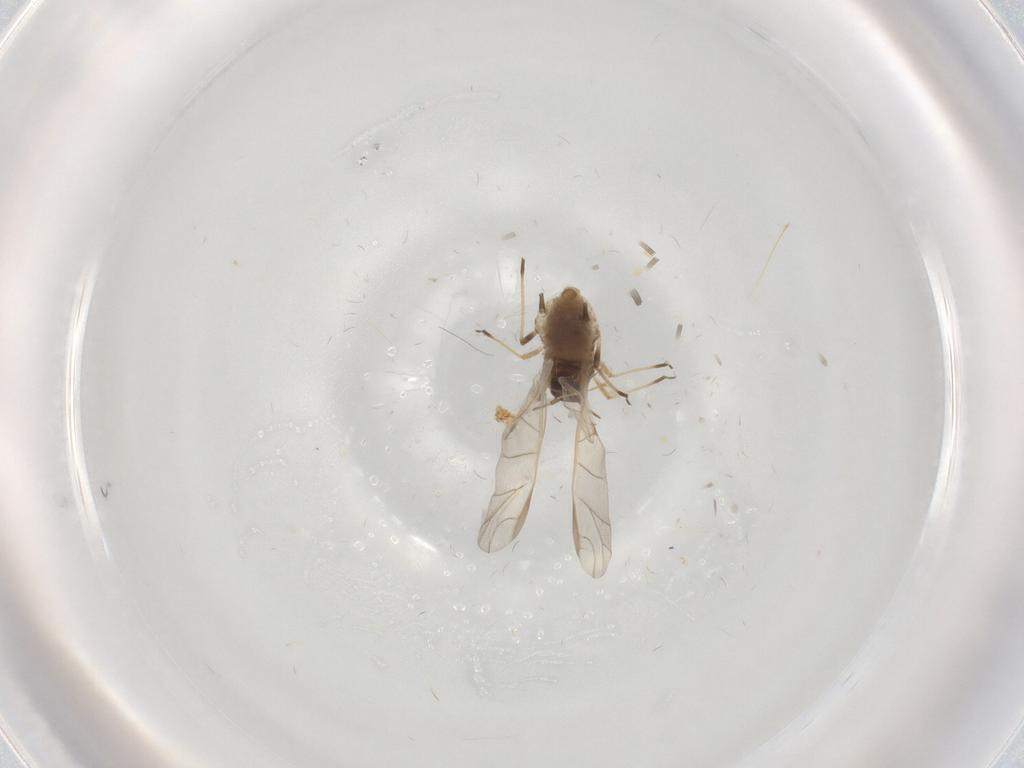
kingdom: Animalia
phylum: Arthropoda
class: Insecta
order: Hemiptera
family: Aphididae
